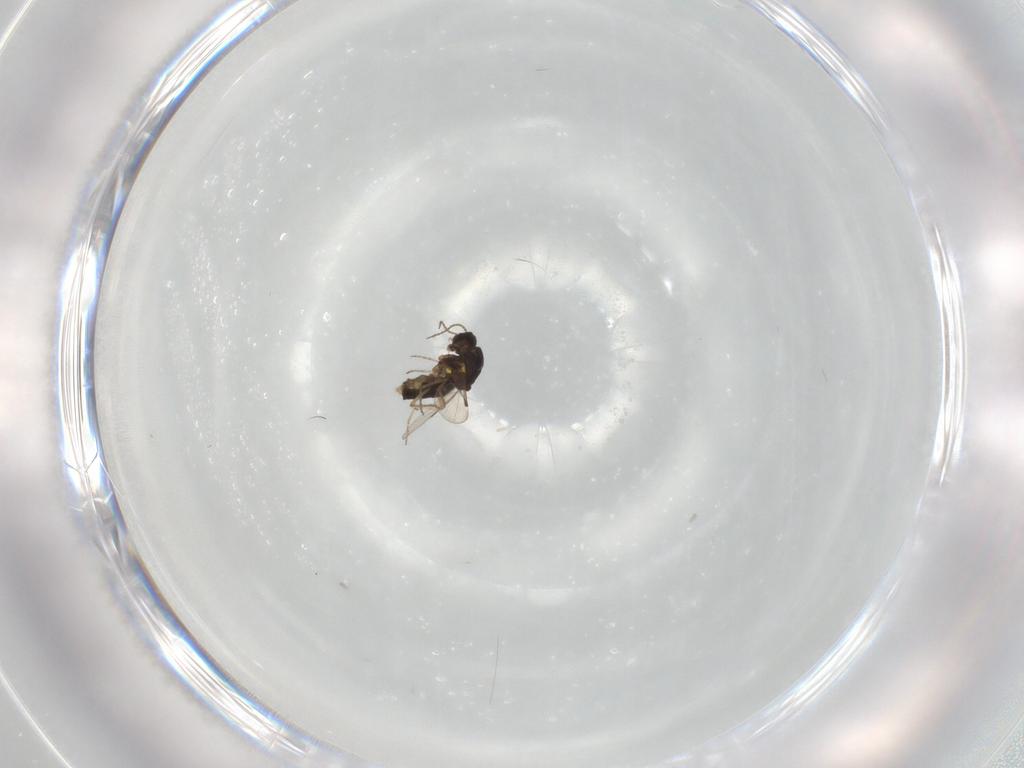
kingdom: Animalia
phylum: Arthropoda
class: Insecta
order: Diptera
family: Ceratopogonidae
